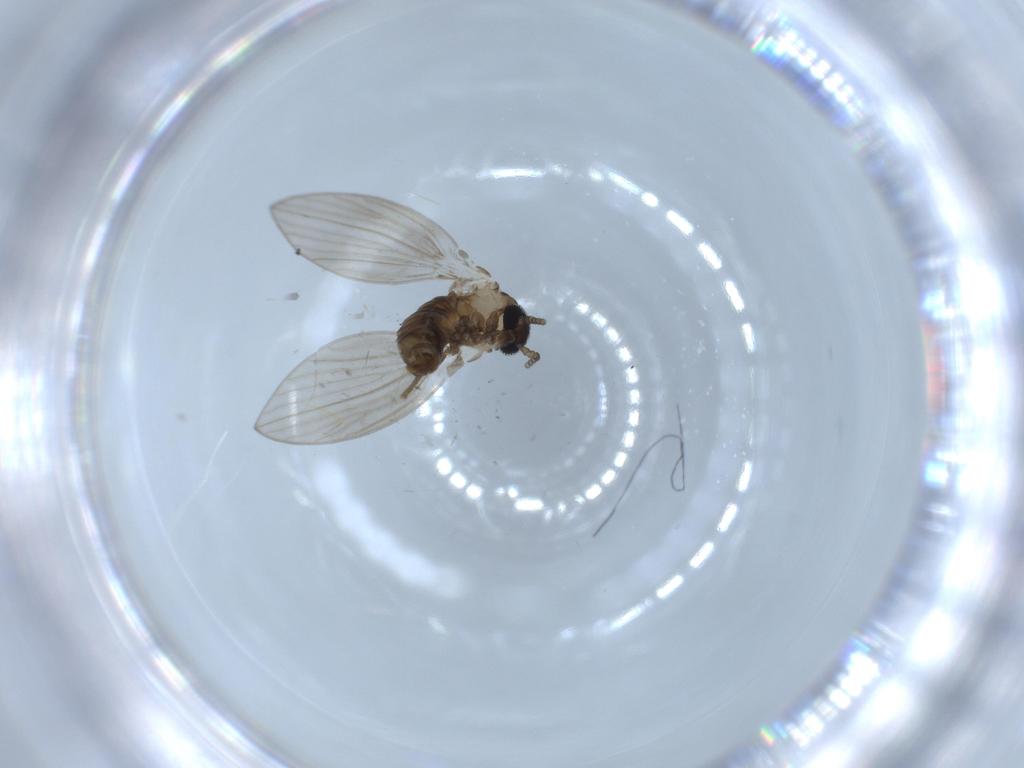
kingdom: Animalia
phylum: Arthropoda
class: Insecta
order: Diptera
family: Psychodidae
